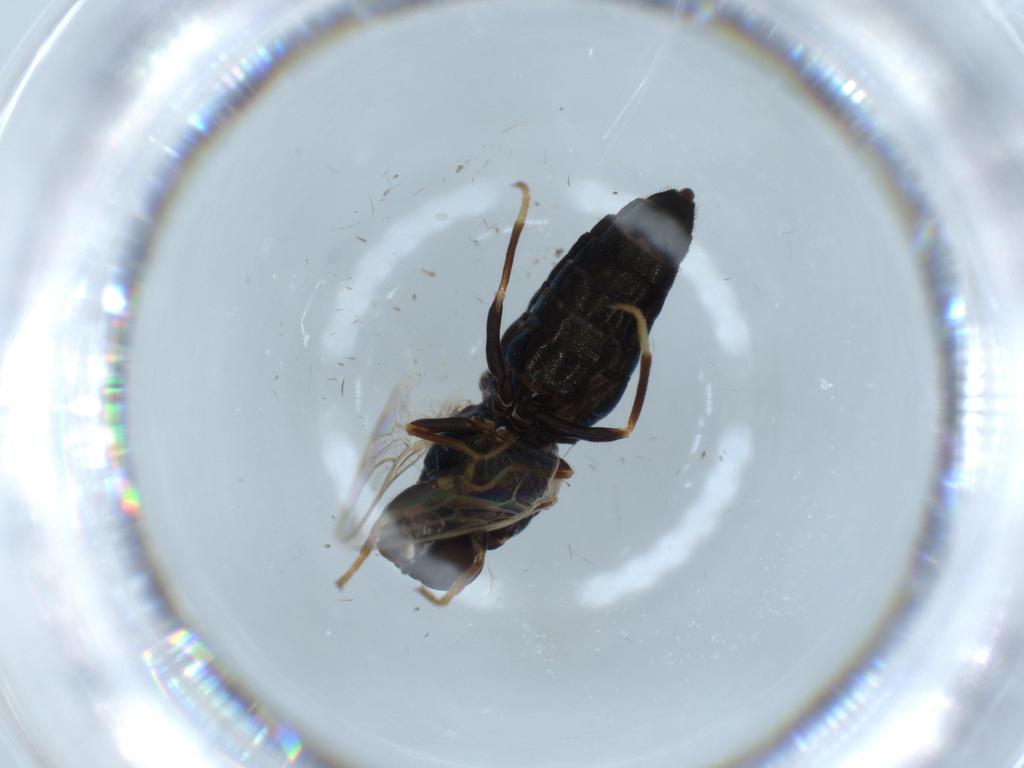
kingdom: Animalia
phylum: Arthropoda
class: Insecta
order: Diptera
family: Scenopinidae
